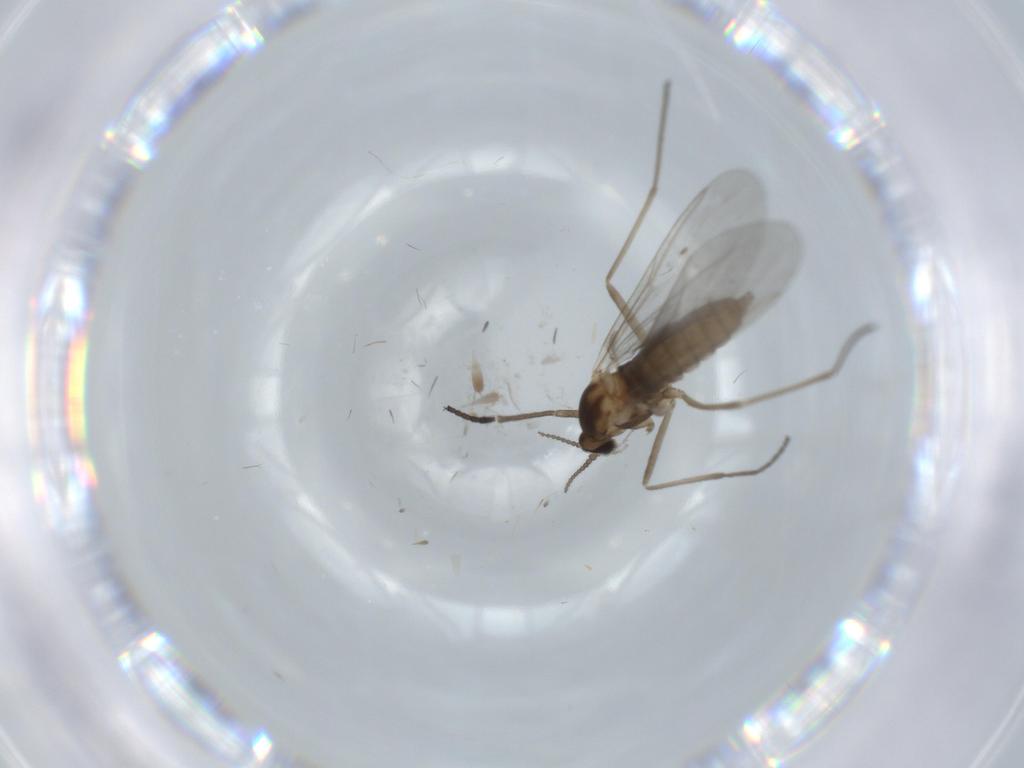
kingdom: Animalia
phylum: Arthropoda
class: Insecta
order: Diptera
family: Cecidomyiidae
